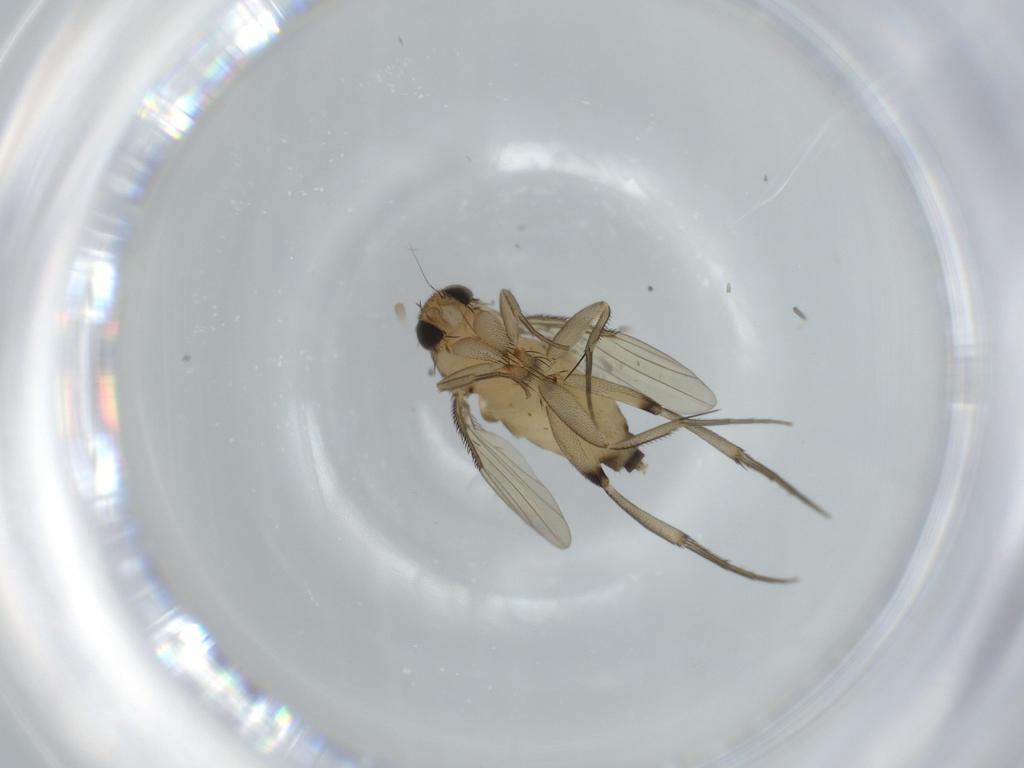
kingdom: Animalia
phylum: Arthropoda
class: Insecta
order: Diptera
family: Phoridae
